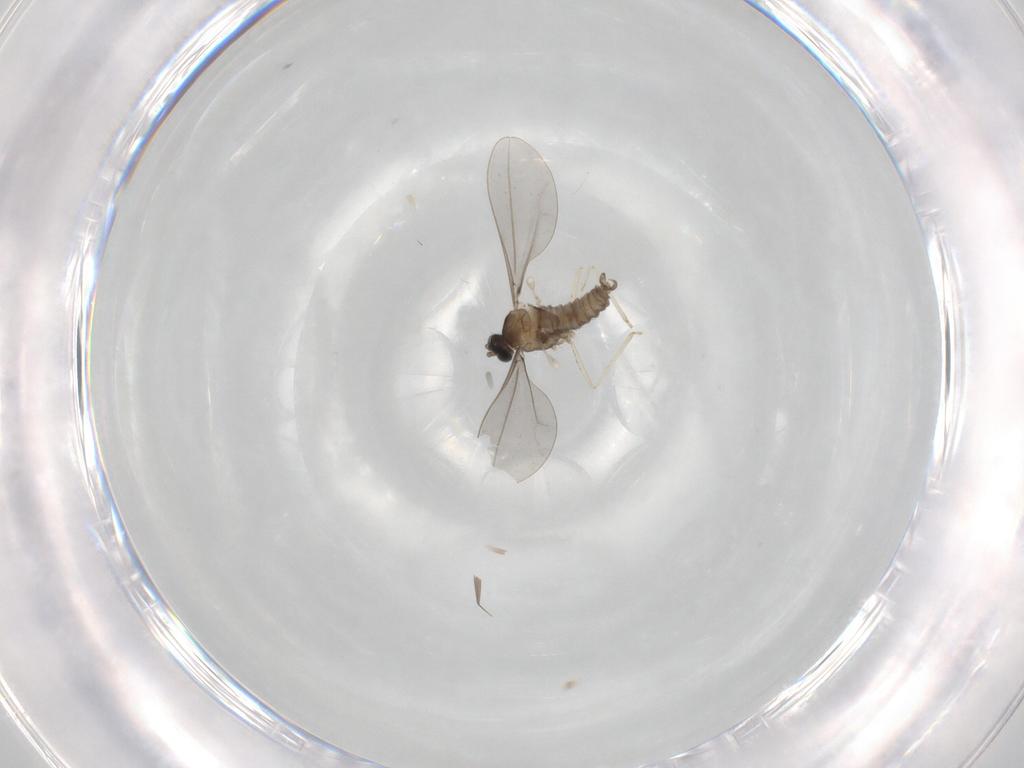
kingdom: Animalia
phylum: Arthropoda
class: Insecta
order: Diptera
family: Cecidomyiidae
